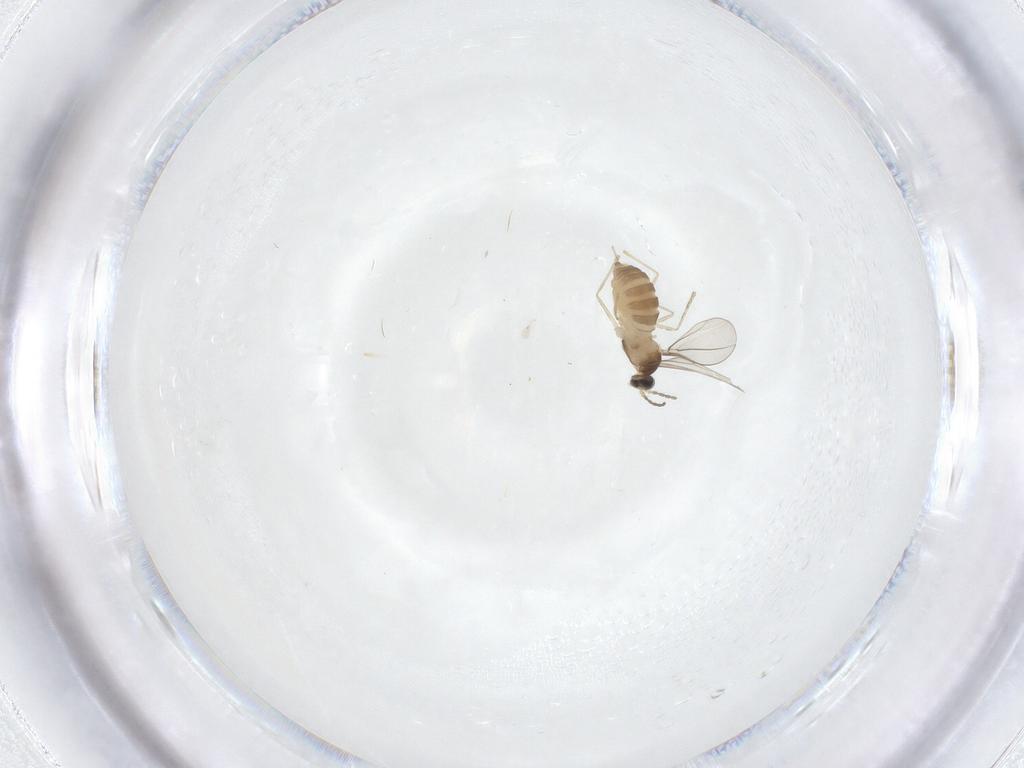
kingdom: Animalia
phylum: Arthropoda
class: Insecta
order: Diptera
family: Cecidomyiidae
